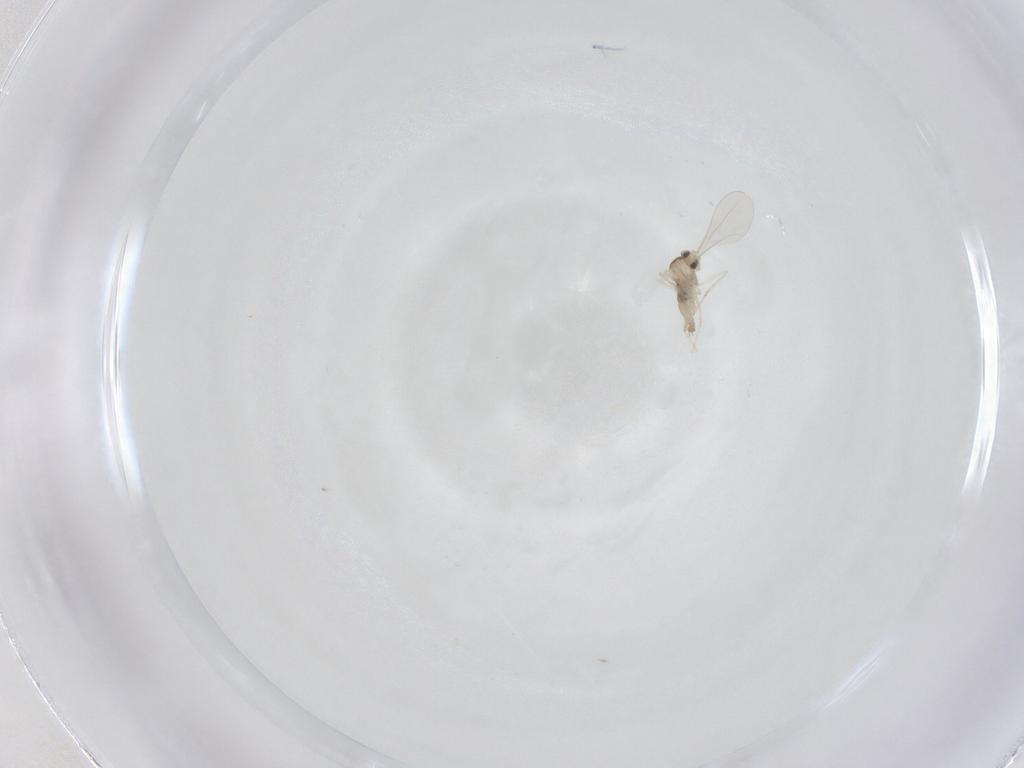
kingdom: Animalia
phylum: Arthropoda
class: Insecta
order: Diptera
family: Cecidomyiidae
